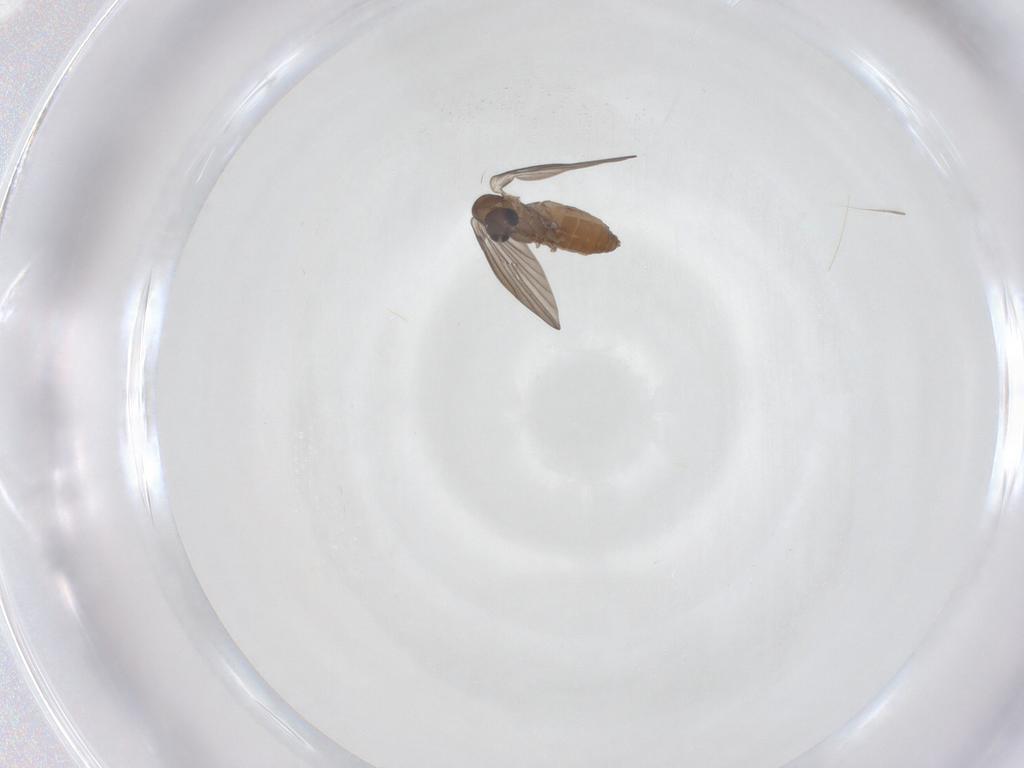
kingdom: Animalia
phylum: Arthropoda
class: Insecta
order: Diptera
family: Psychodidae
